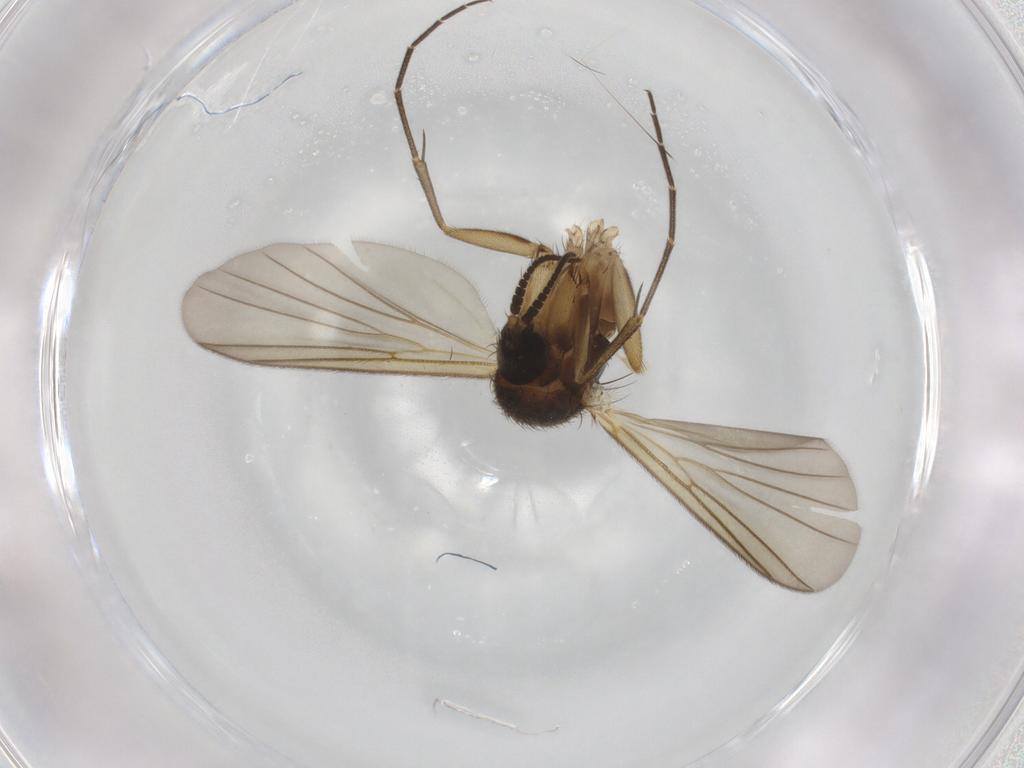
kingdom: Animalia
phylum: Arthropoda
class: Insecta
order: Diptera
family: Mycetophilidae
